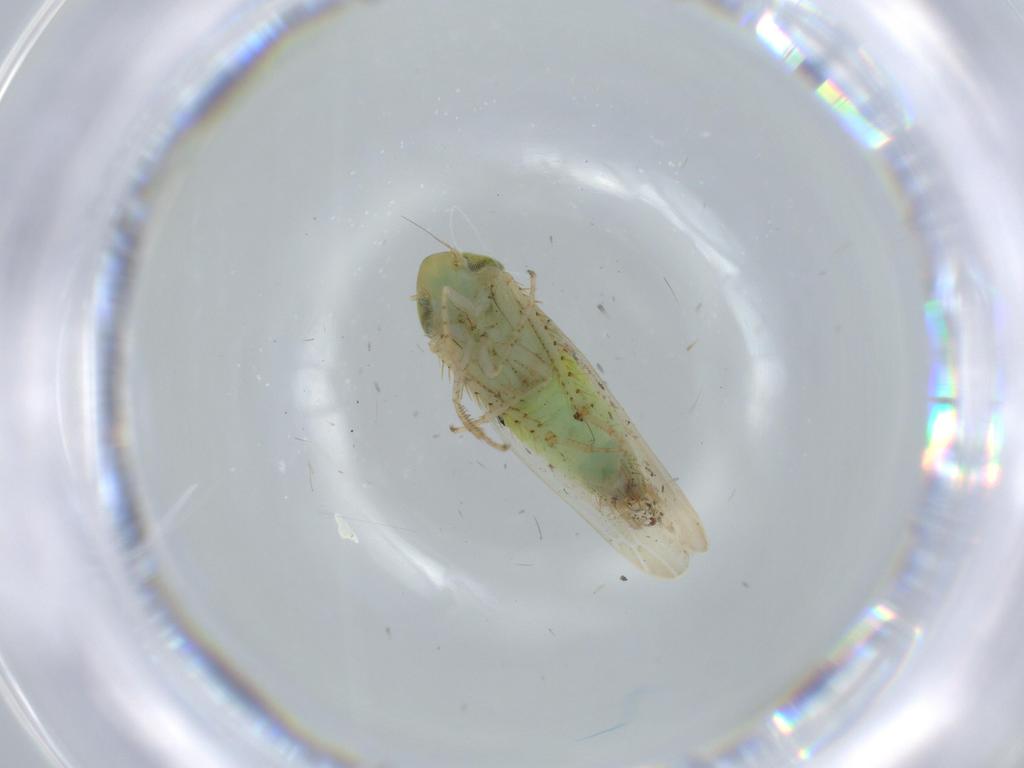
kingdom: Animalia
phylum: Arthropoda
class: Insecta
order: Hemiptera
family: Cicadellidae
